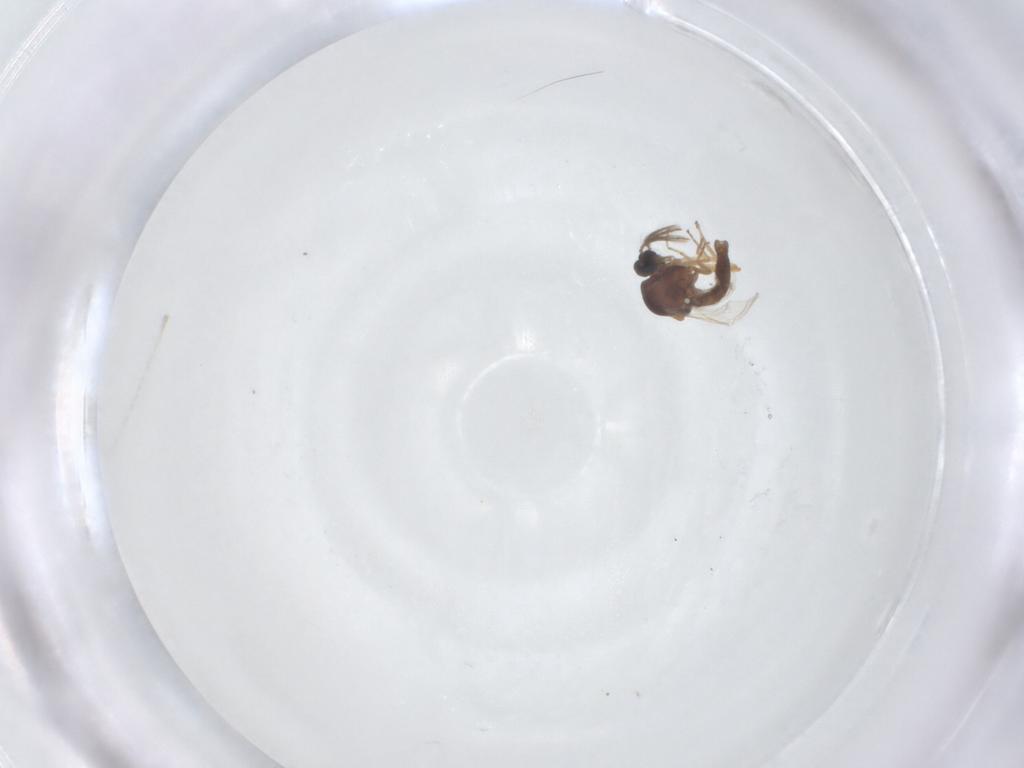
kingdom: Animalia
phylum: Arthropoda
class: Insecta
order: Diptera
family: Ceratopogonidae
